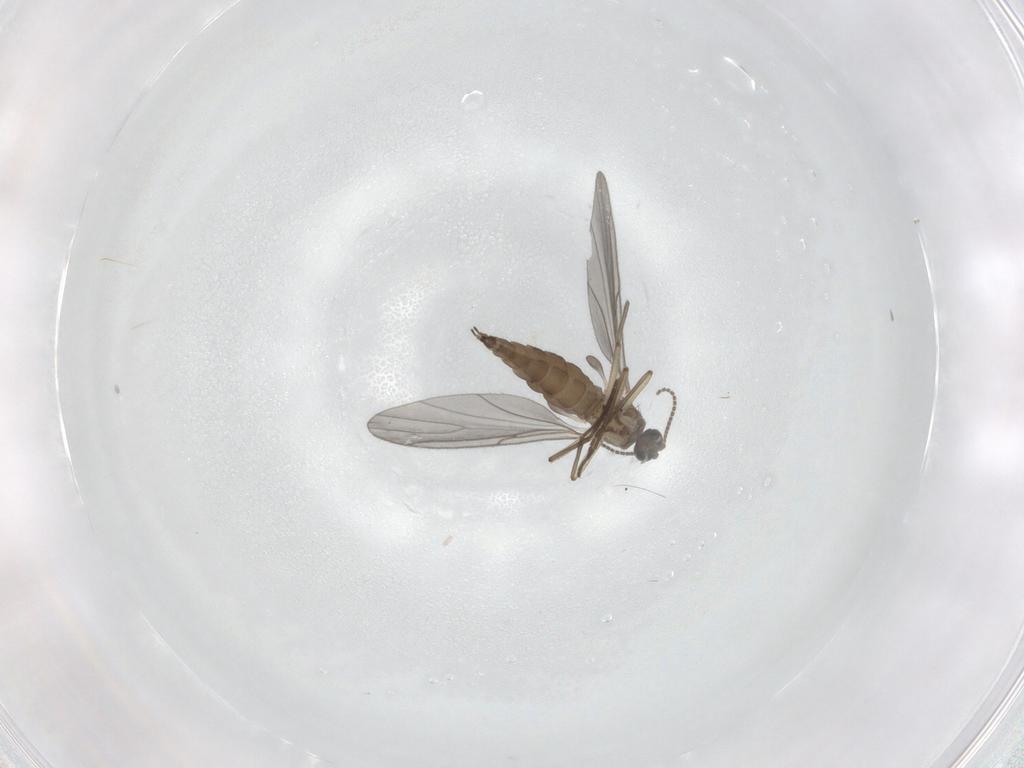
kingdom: Animalia
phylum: Arthropoda
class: Insecta
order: Diptera
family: Sciaridae
